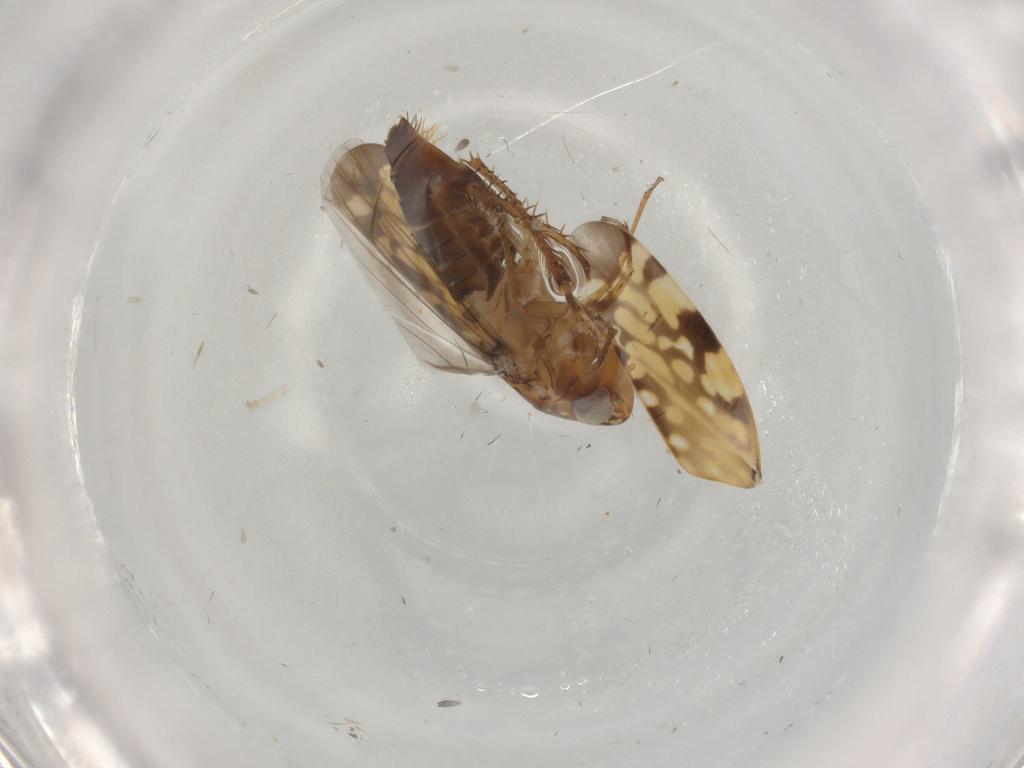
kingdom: Animalia
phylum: Arthropoda
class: Insecta
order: Hemiptera
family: Cicadellidae
